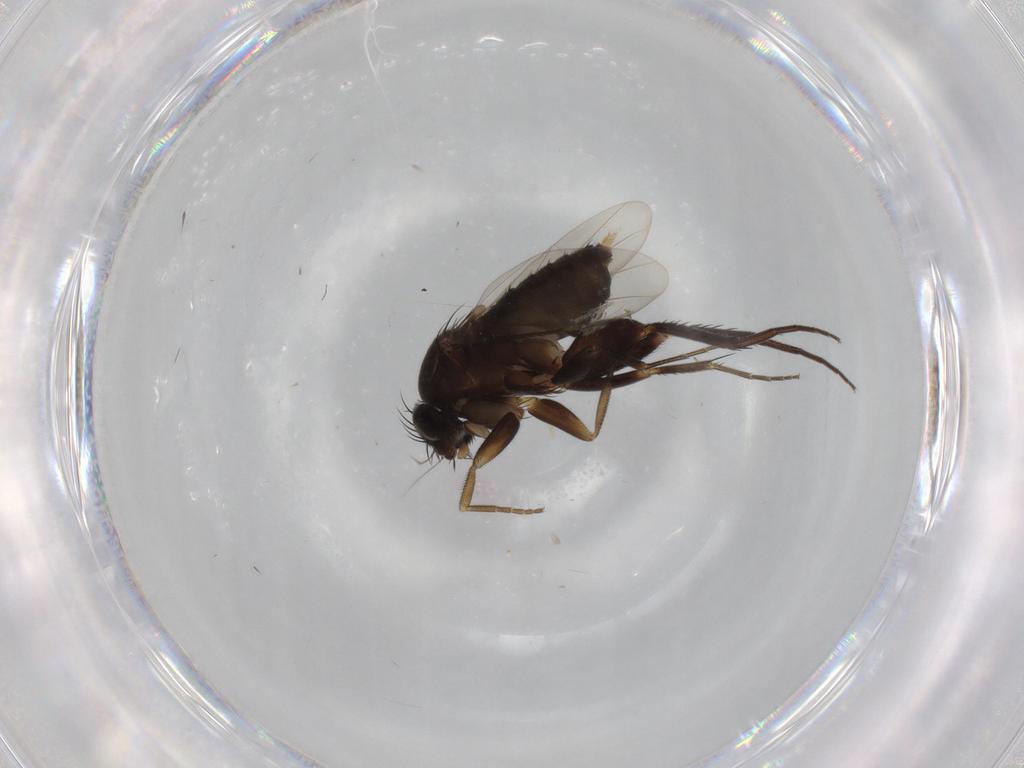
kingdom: Animalia
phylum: Arthropoda
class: Insecta
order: Diptera
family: Phoridae
